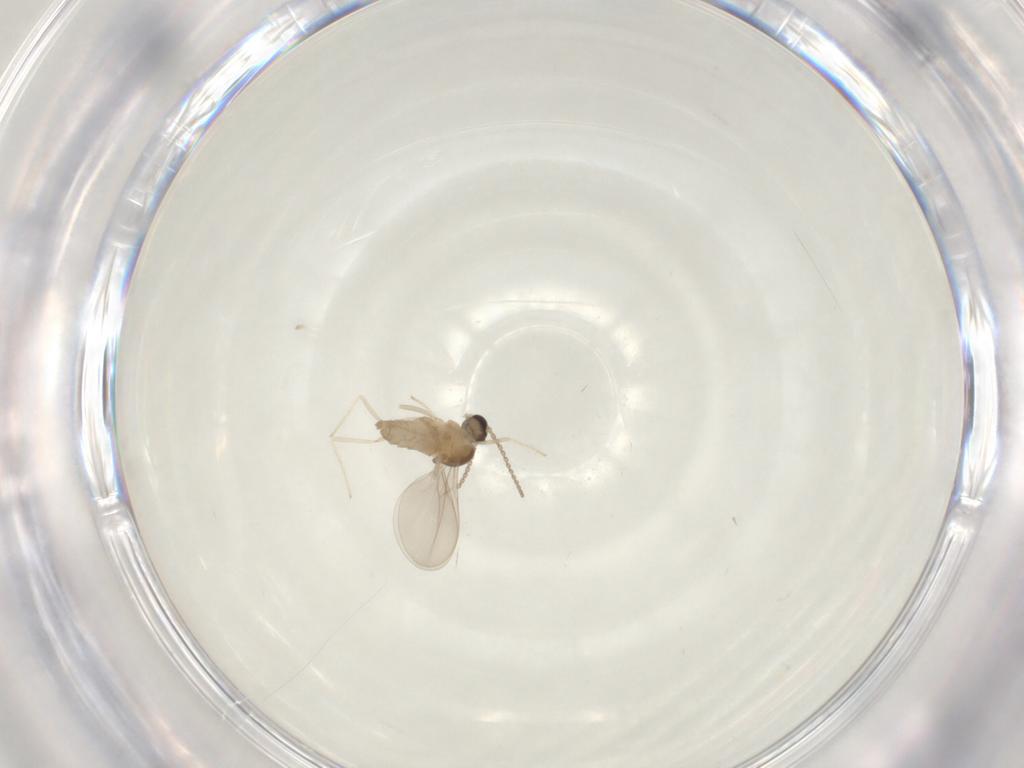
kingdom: Animalia
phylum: Arthropoda
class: Insecta
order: Diptera
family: Cecidomyiidae
